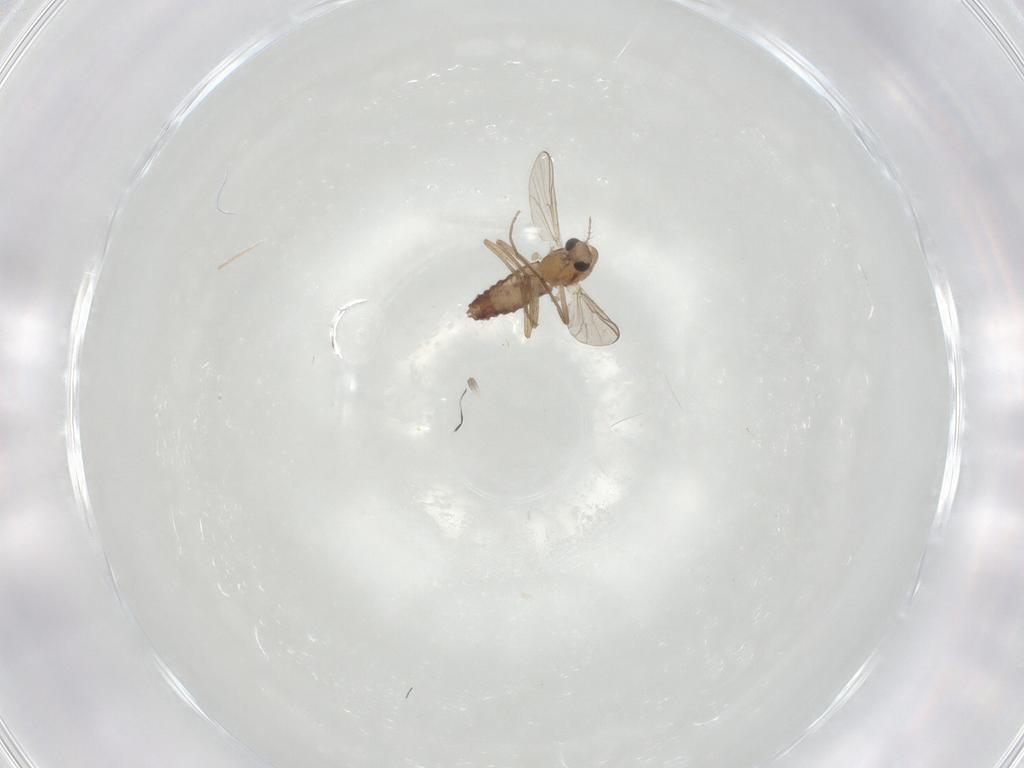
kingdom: Animalia
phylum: Arthropoda
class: Insecta
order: Diptera
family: Chironomidae
